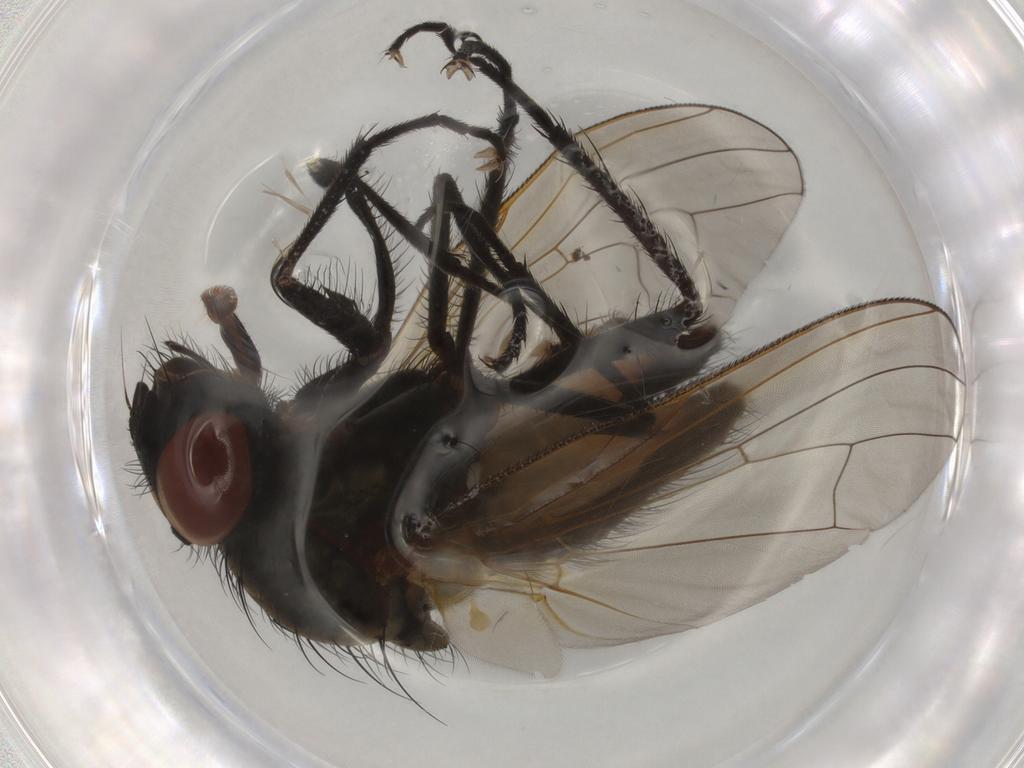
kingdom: Animalia
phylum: Arthropoda
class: Insecta
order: Diptera
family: Anthomyiidae
